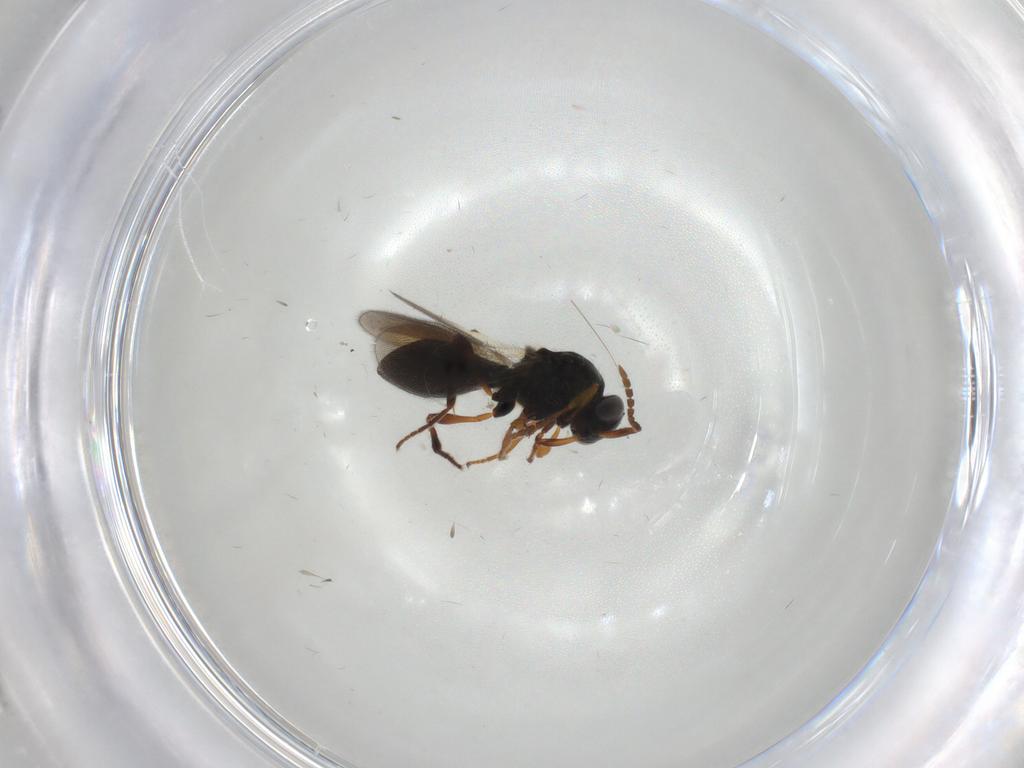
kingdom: Animalia
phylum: Arthropoda
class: Insecta
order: Hymenoptera
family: Platygastridae
